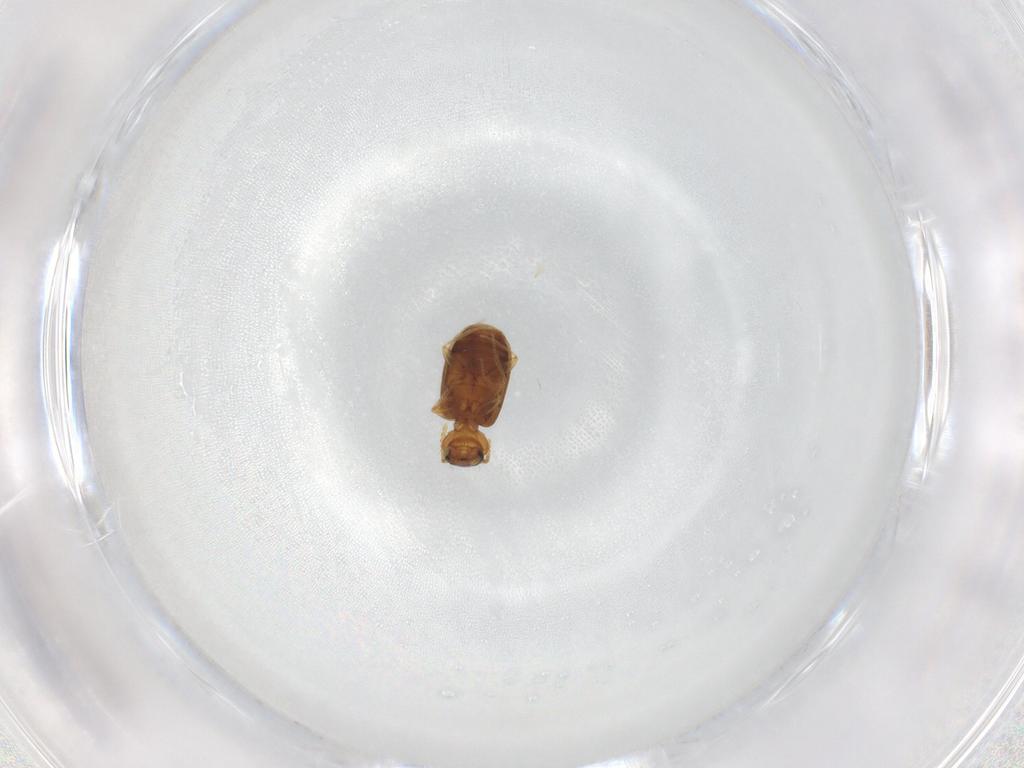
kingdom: Animalia
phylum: Arthropoda
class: Insecta
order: Coleoptera
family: Carabidae
